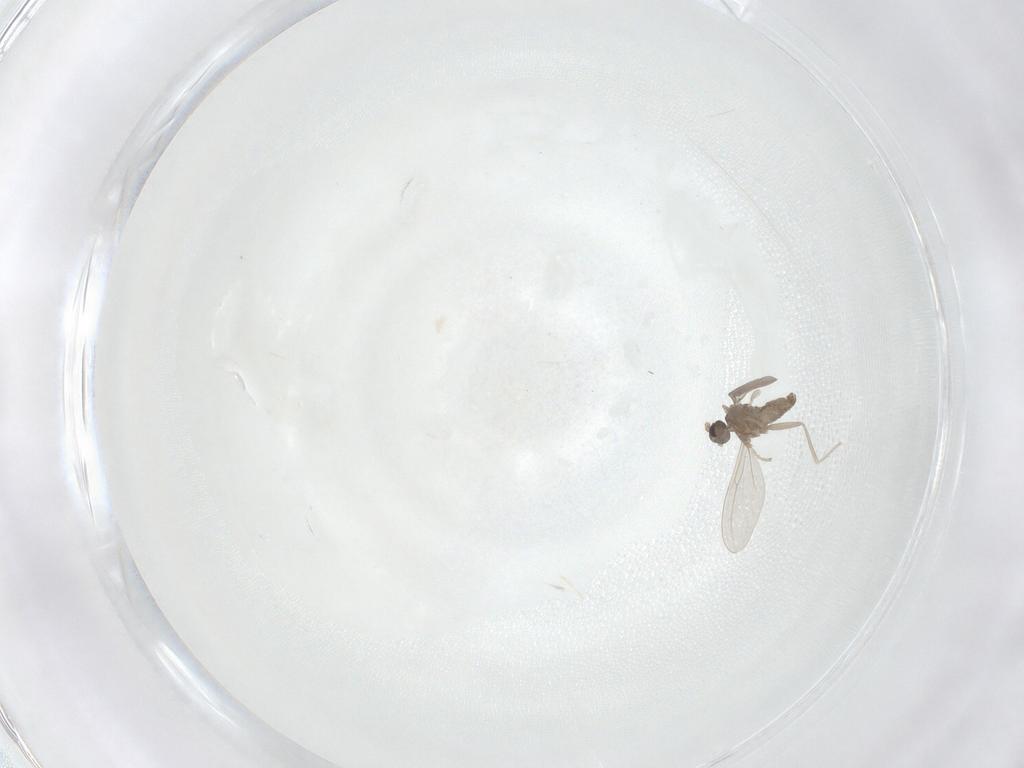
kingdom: Animalia
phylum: Arthropoda
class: Insecta
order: Diptera
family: Cecidomyiidae
